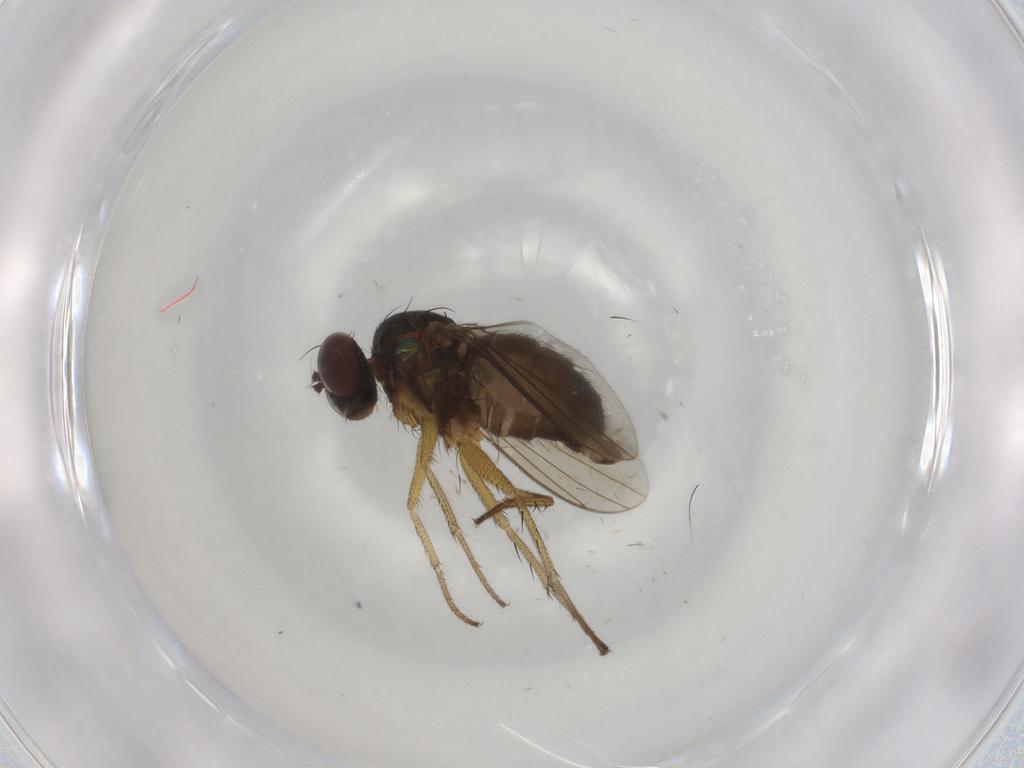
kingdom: Animalia
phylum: Arthropoda
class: Insecta
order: Diptera
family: Dolichopodidae
